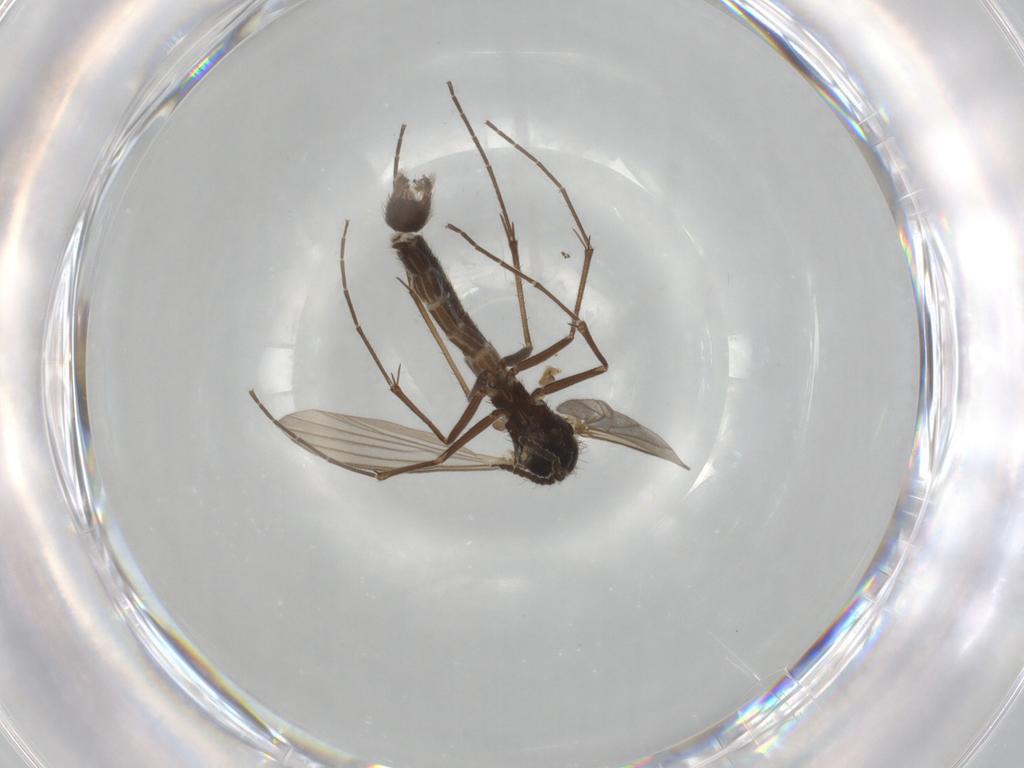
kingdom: Animalia
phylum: Arthropoda
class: Insecta
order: Diptera
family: Mycetophilidae
